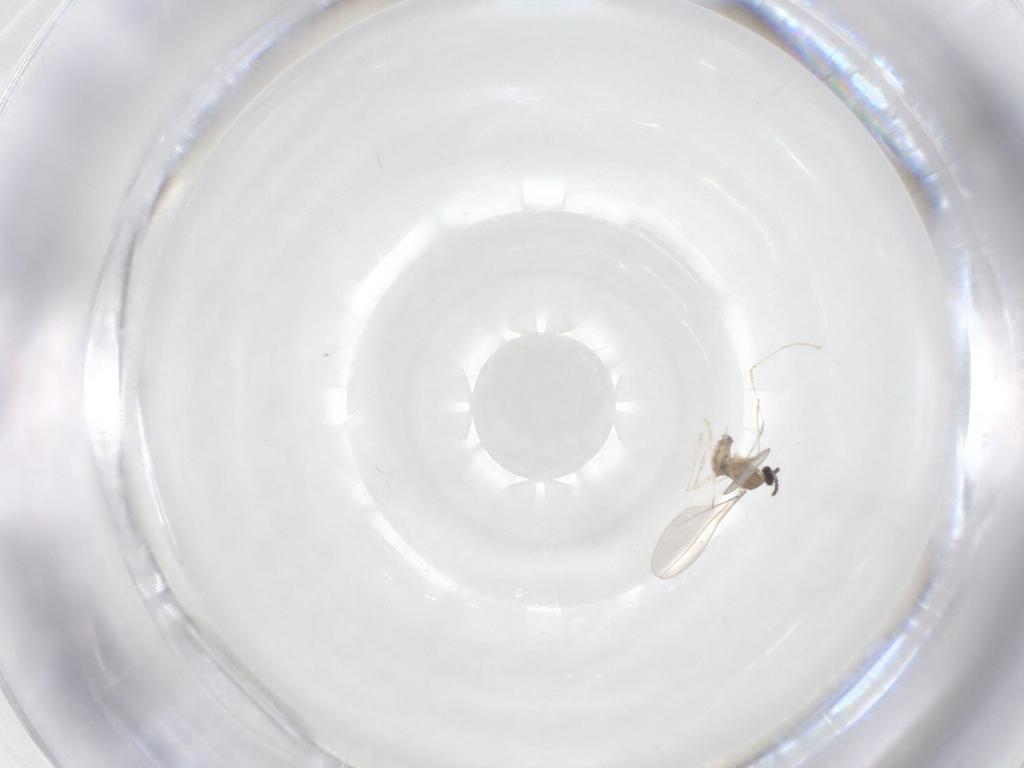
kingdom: Animalia
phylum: Arthropoda
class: Insecta
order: Diptera
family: Cecidomyiidae
